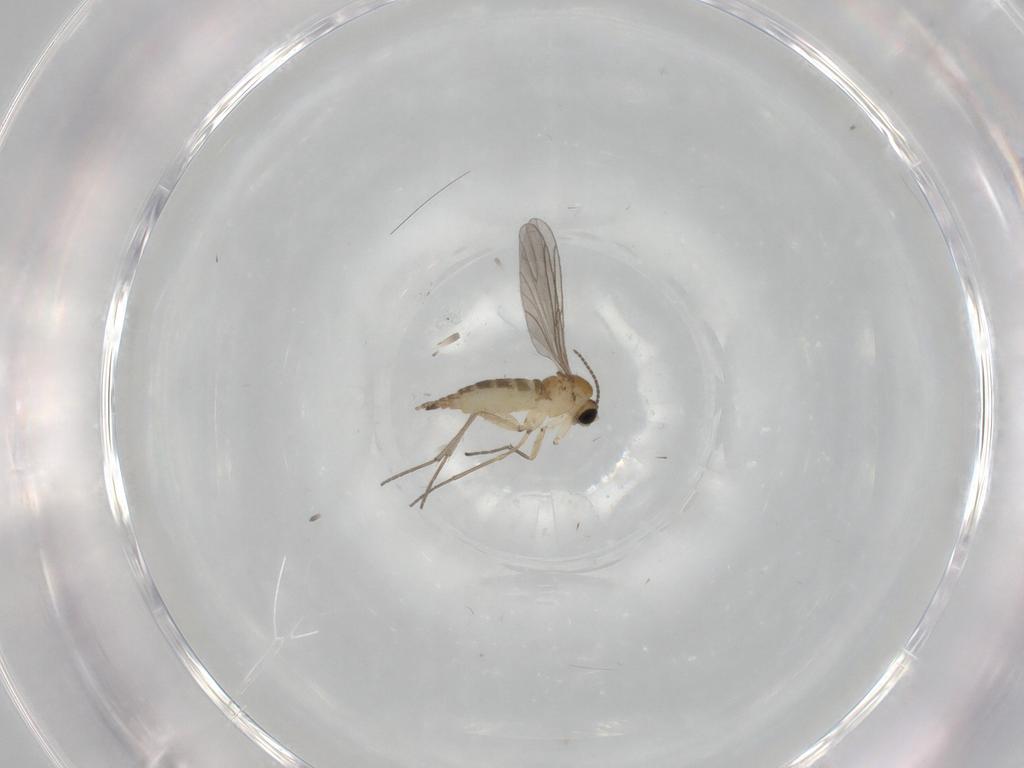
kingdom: Animalia
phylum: Arthropoda
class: Insecta
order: Diptera
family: Sciaridae
